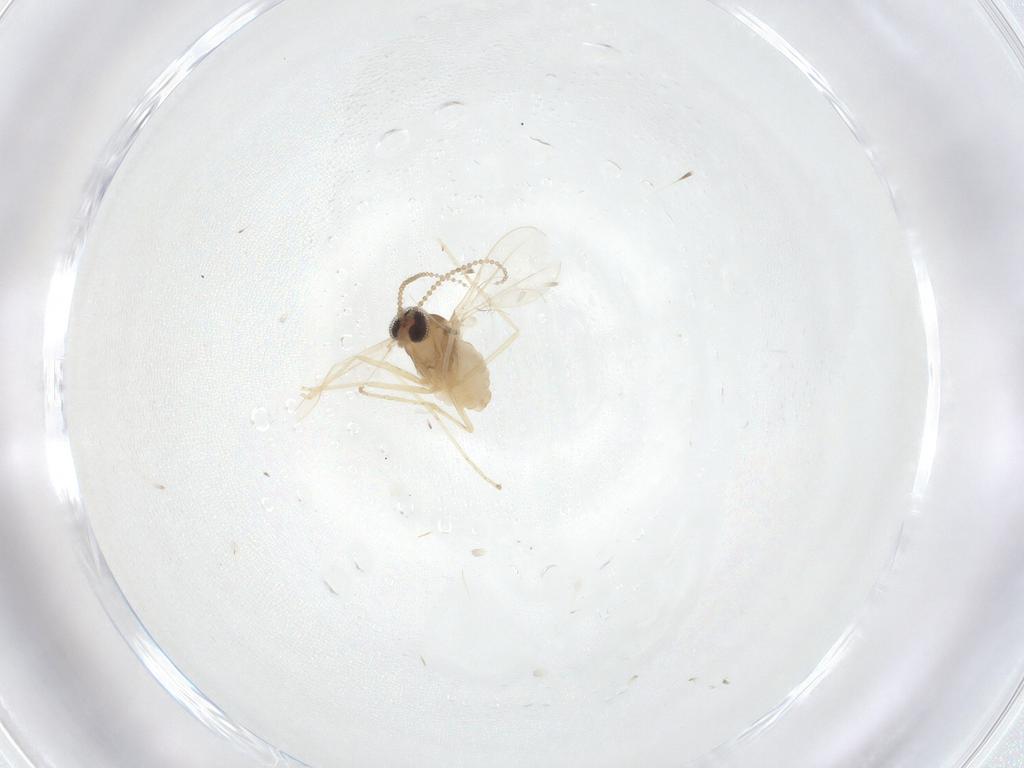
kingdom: Animalia
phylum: Arthropoda
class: Insecta
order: Diptera
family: Cecidomyiidae
